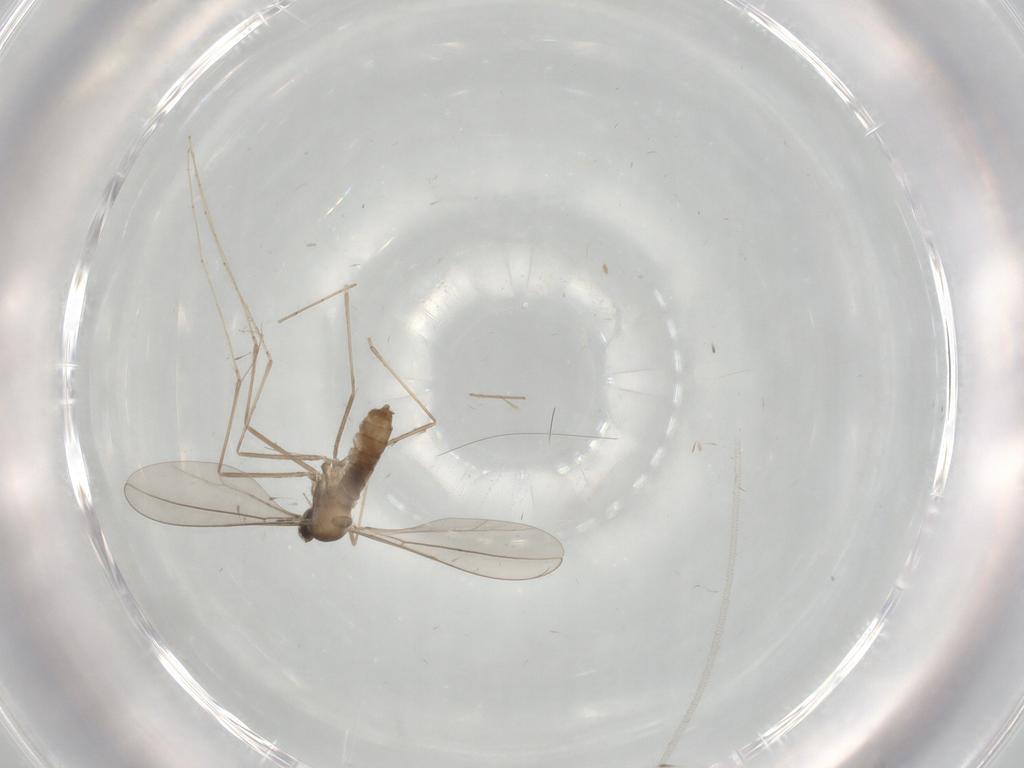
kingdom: Animalia
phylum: Arthropoda
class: Insecta
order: Diptera
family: Cecidomyiidae
